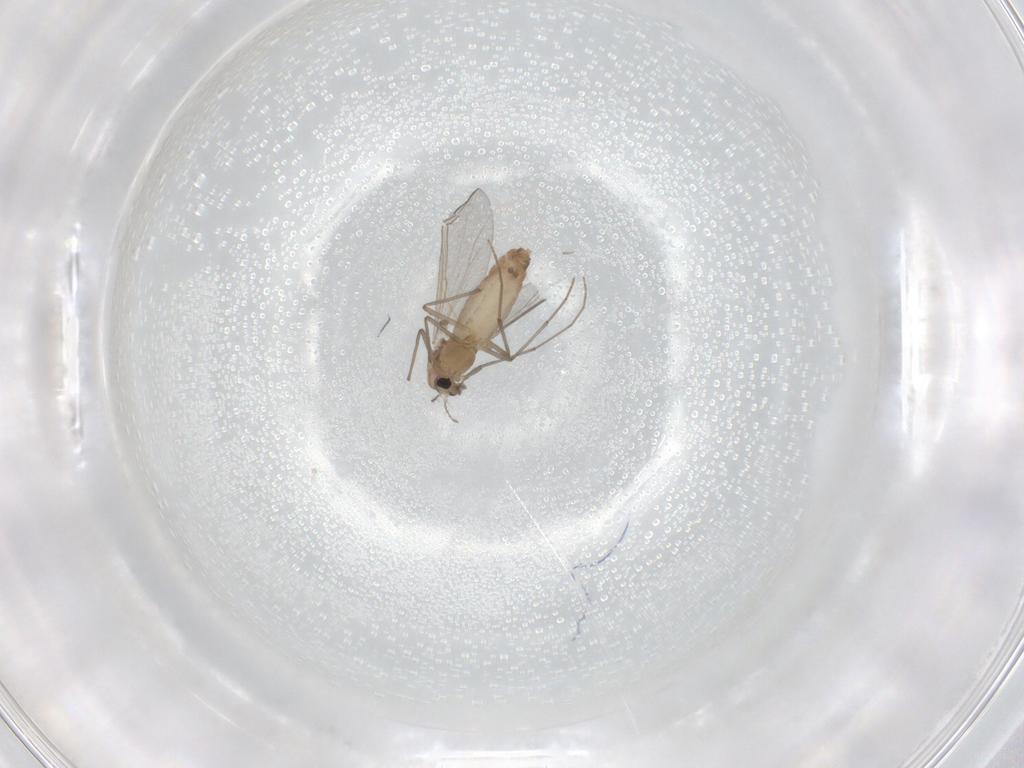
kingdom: Animalia
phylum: Arthropoda
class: Insecta
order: Diptera
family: Chironomidae
